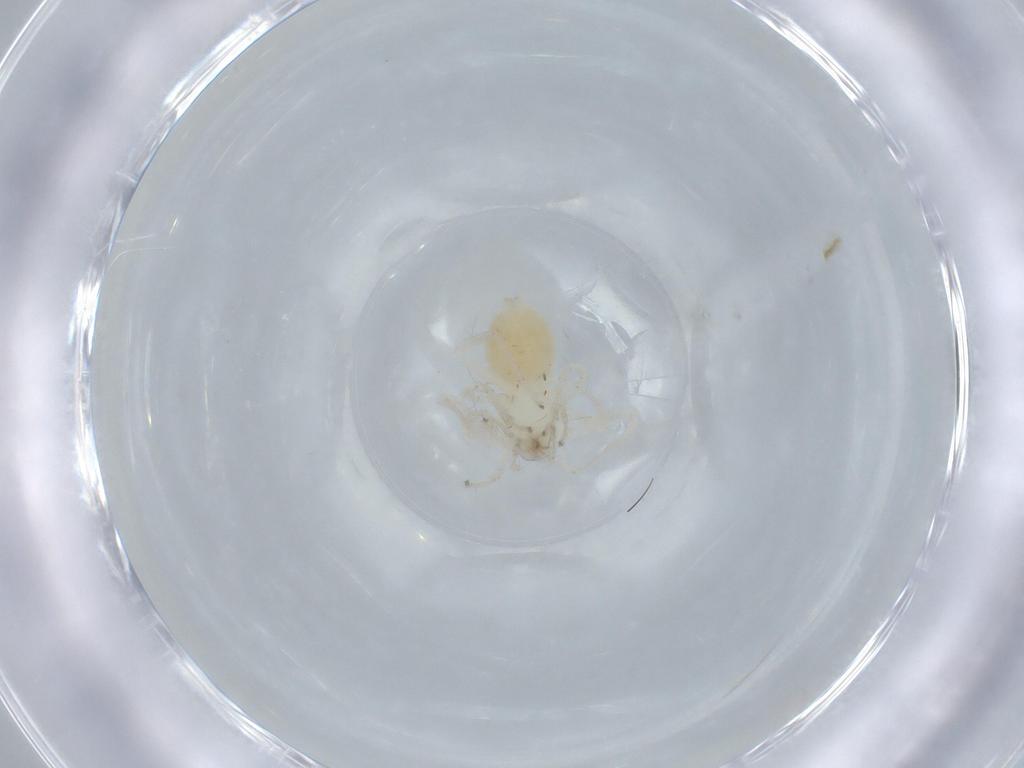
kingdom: Animalia
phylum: Arthropoda
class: Arachnida
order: Araneae
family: Anyphaenidae
